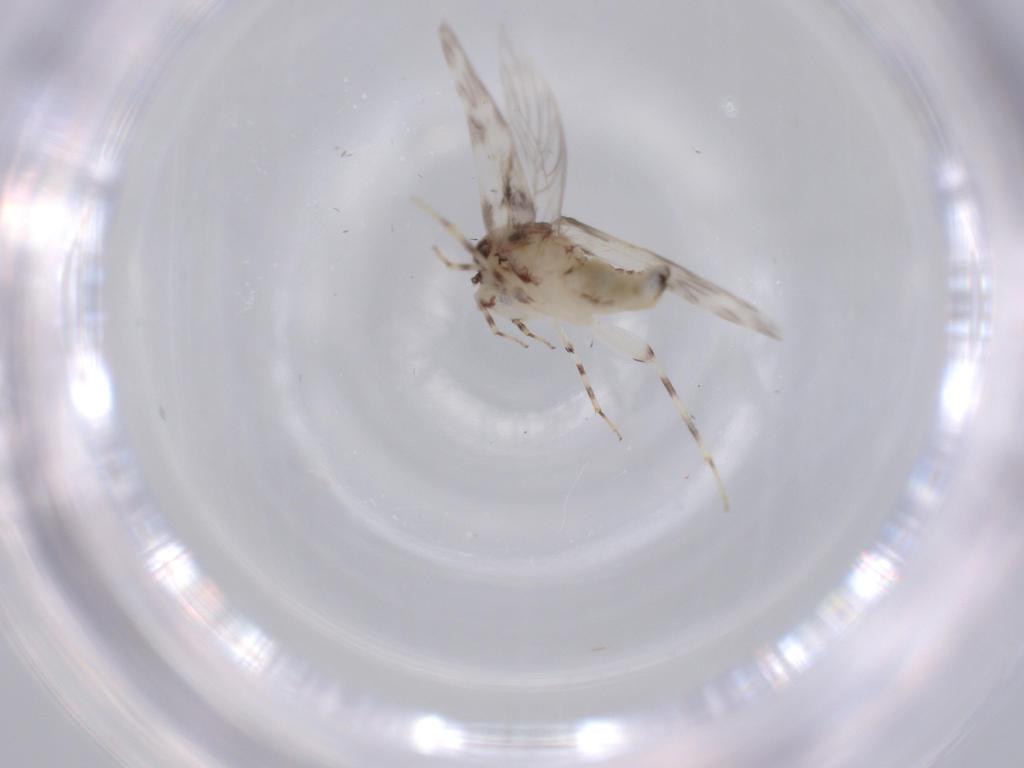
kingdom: Animalia
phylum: Arthropoda
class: Insecta
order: Psocodea
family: Lepidopsocidae
